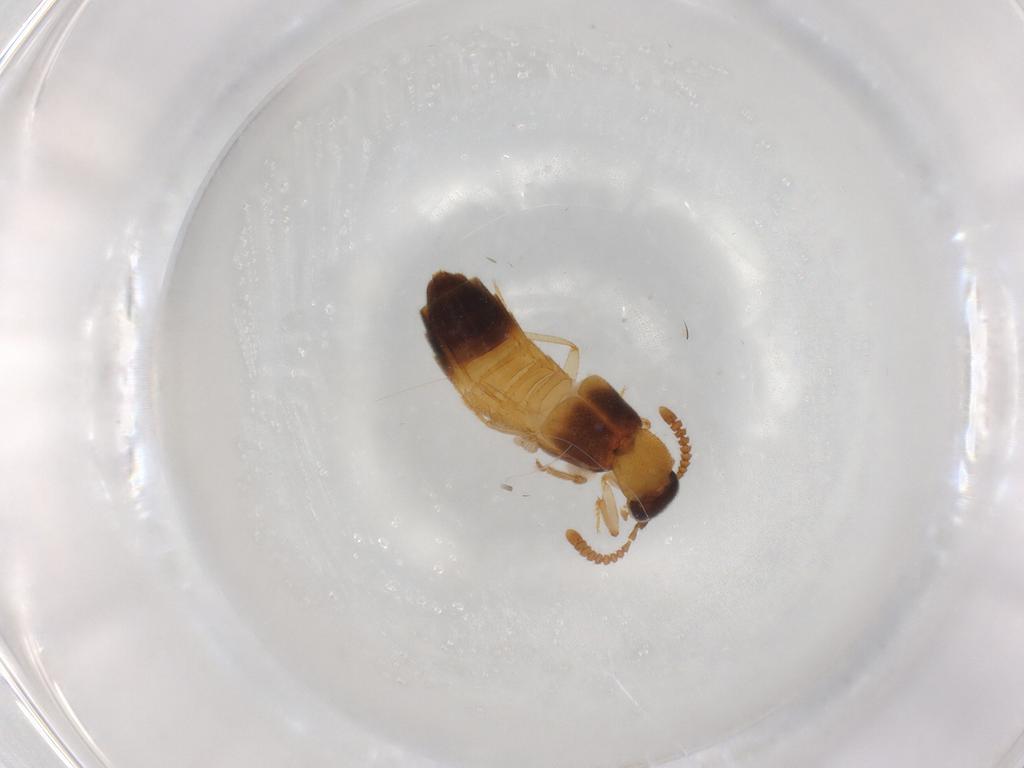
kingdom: Animalia
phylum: Arthropoda
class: Insecta
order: Coleoptera
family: Staphylinidae
